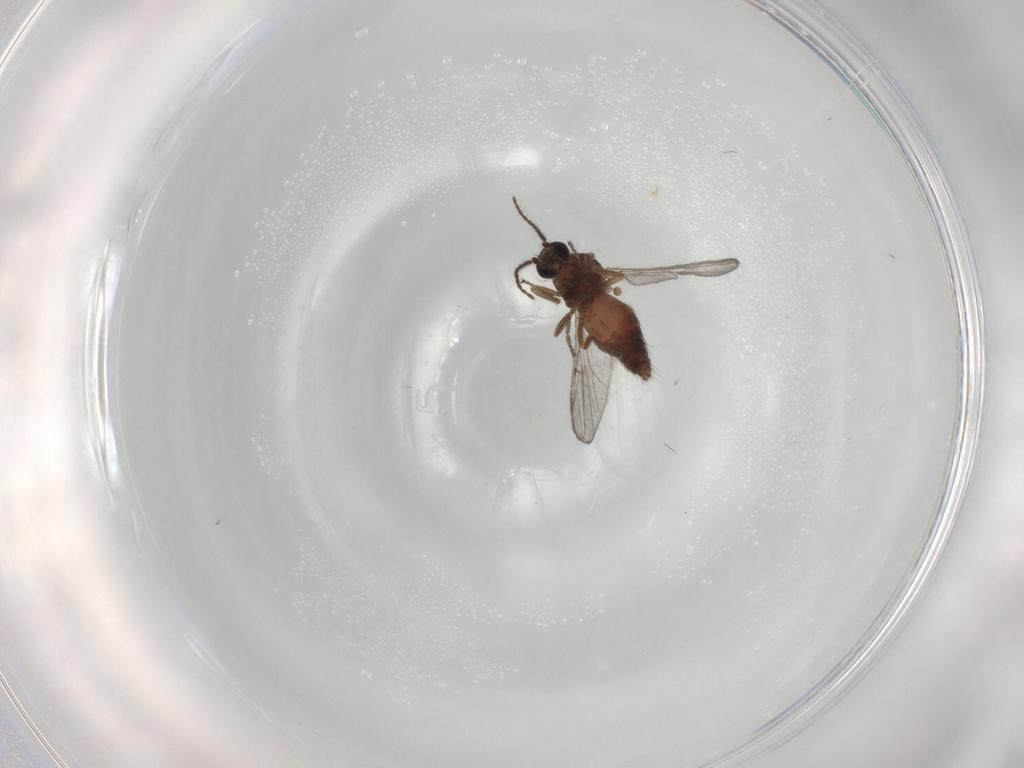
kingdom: Animalia
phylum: Arthropoda
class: Insecta
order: Diptera
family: Ceratopogonidae
